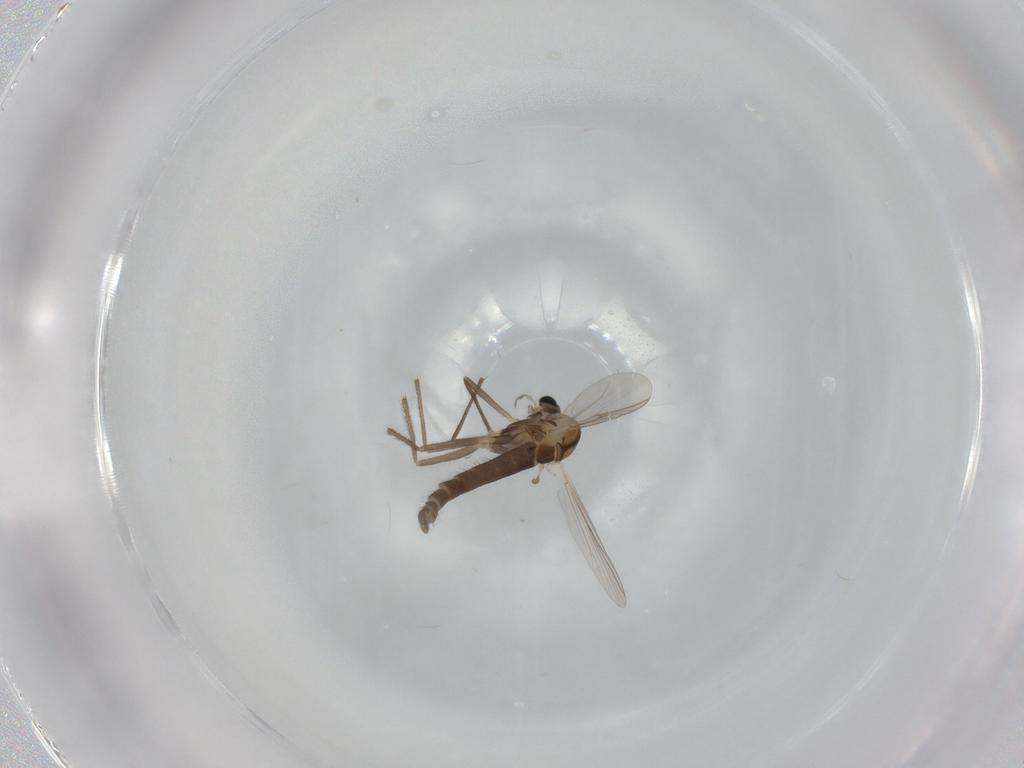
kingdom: Animalia
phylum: Arthropoda
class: Insecta
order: Diptera
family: Chironomidae
